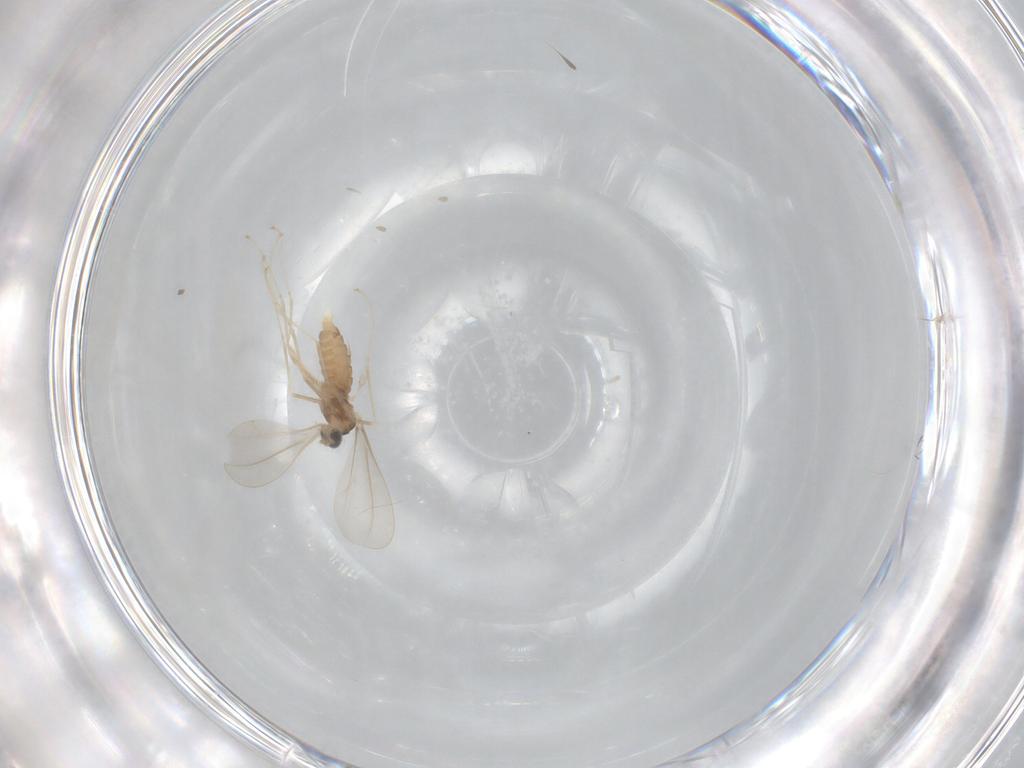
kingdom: Animalia
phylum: Arthropoda
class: Insecta
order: Diptera
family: Cecidomyiidae
